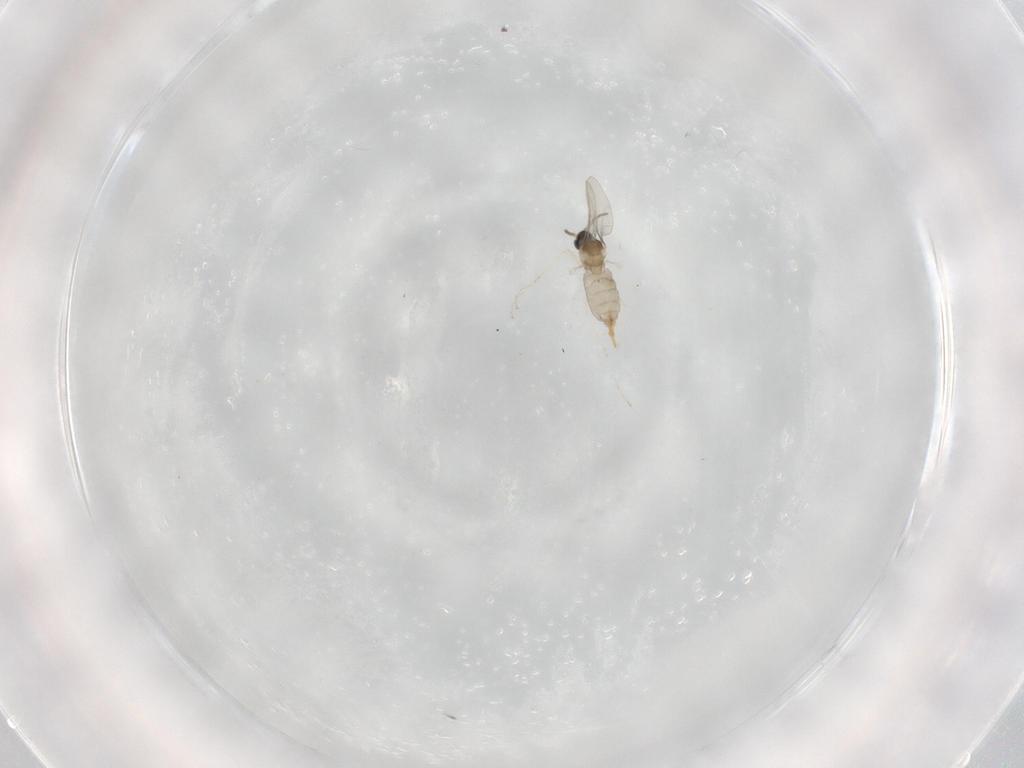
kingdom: Animalia
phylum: Arthropoda
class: Insecta
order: Diptera
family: Cecidomyiidae
